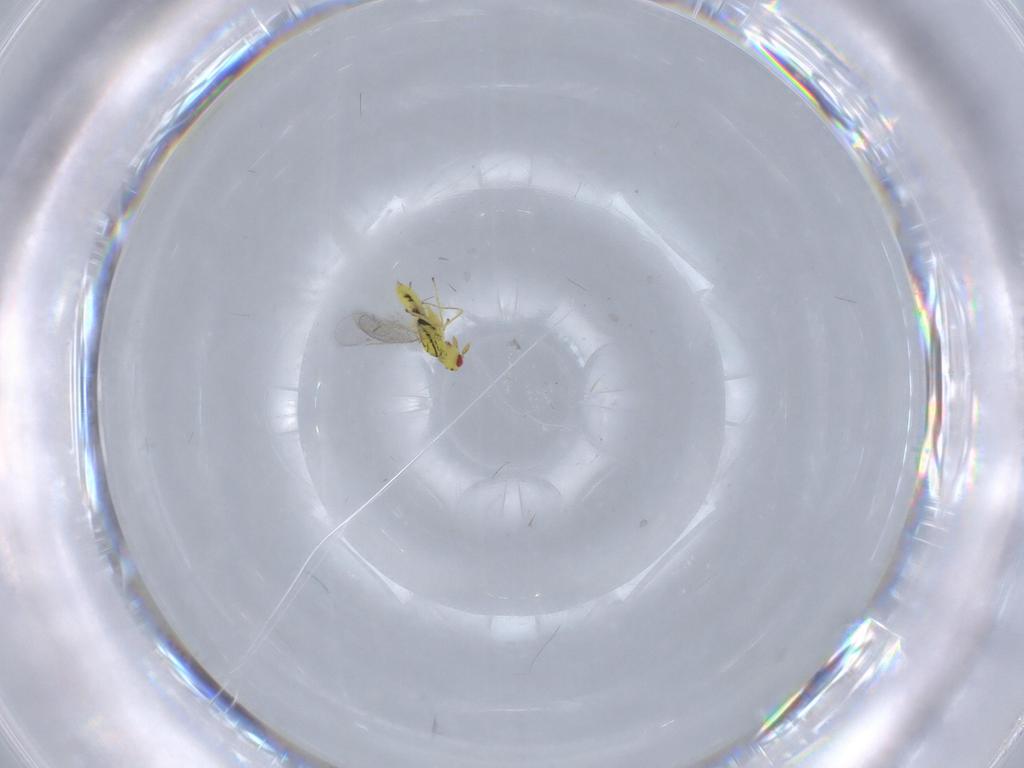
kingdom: Animalia
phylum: Arthropoda
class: Insecta
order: Hymenoptera
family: Eulophidae
